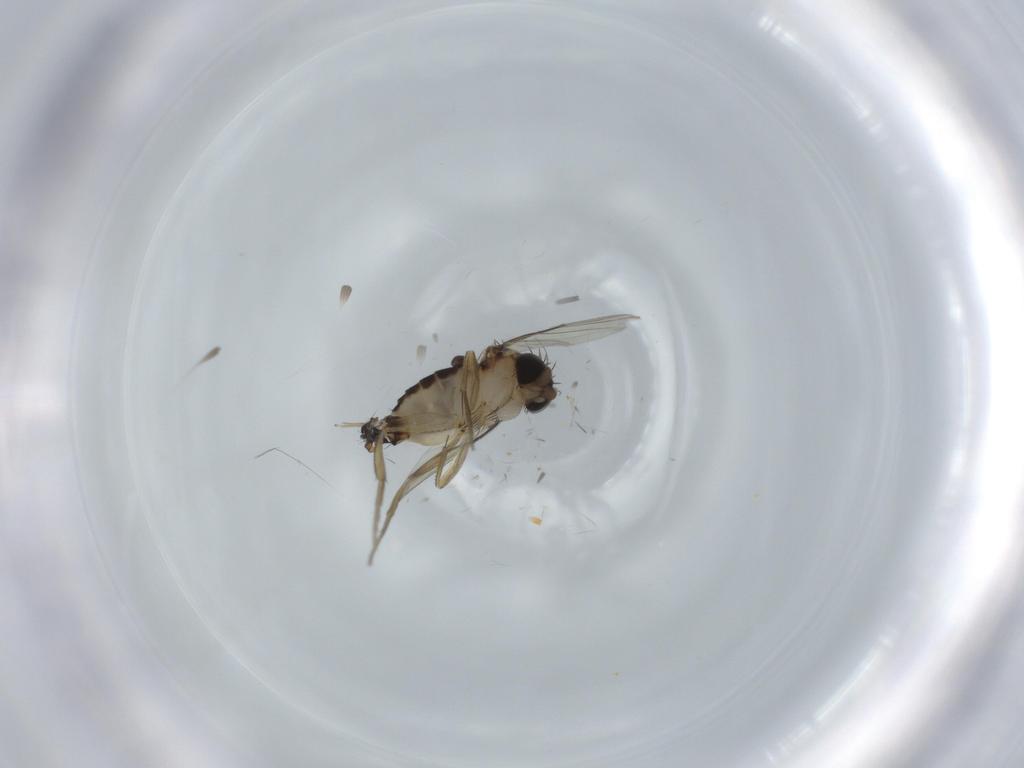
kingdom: Animalia
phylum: Arthropoda
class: Insecta
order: Diptera
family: Phoridae
